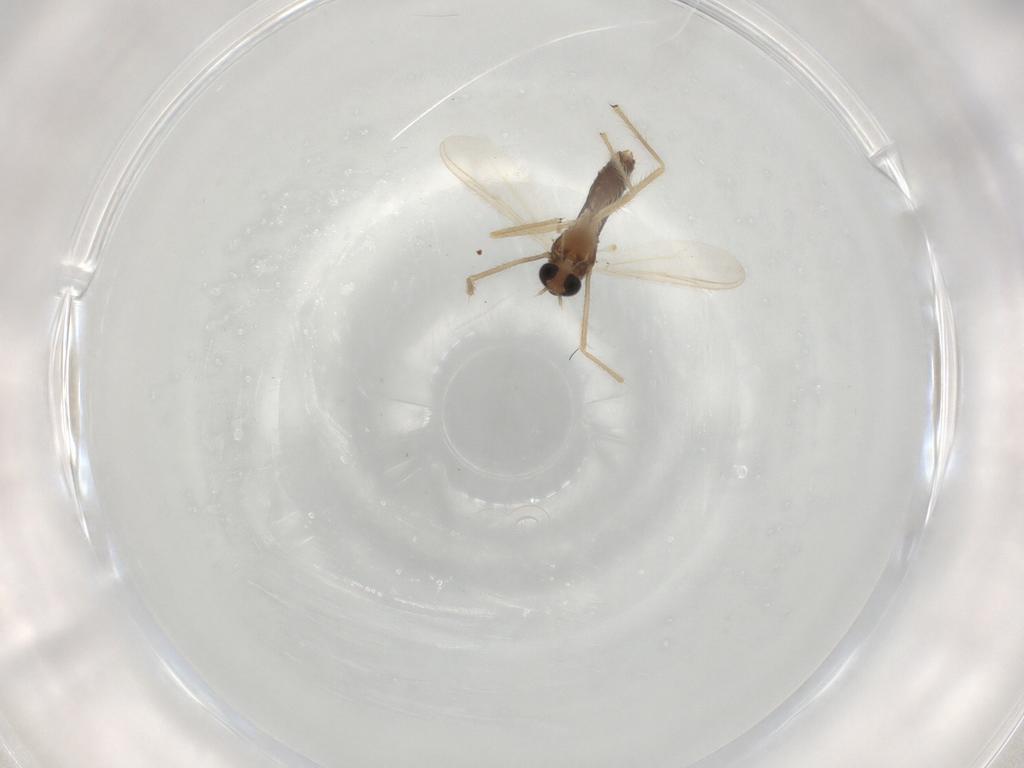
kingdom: Animalia
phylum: Arthropoda
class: Insecta
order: Diptera
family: Chironomidae
